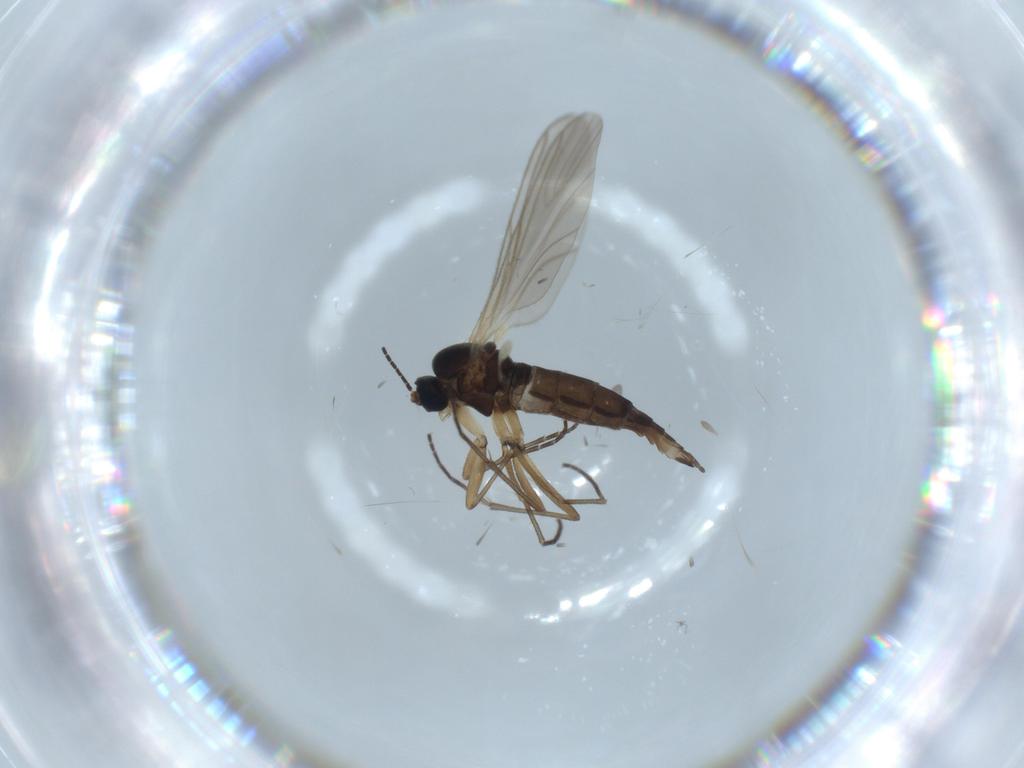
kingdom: Animalia
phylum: Arthropoda
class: Insecta
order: Diptera
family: Sciaridae
